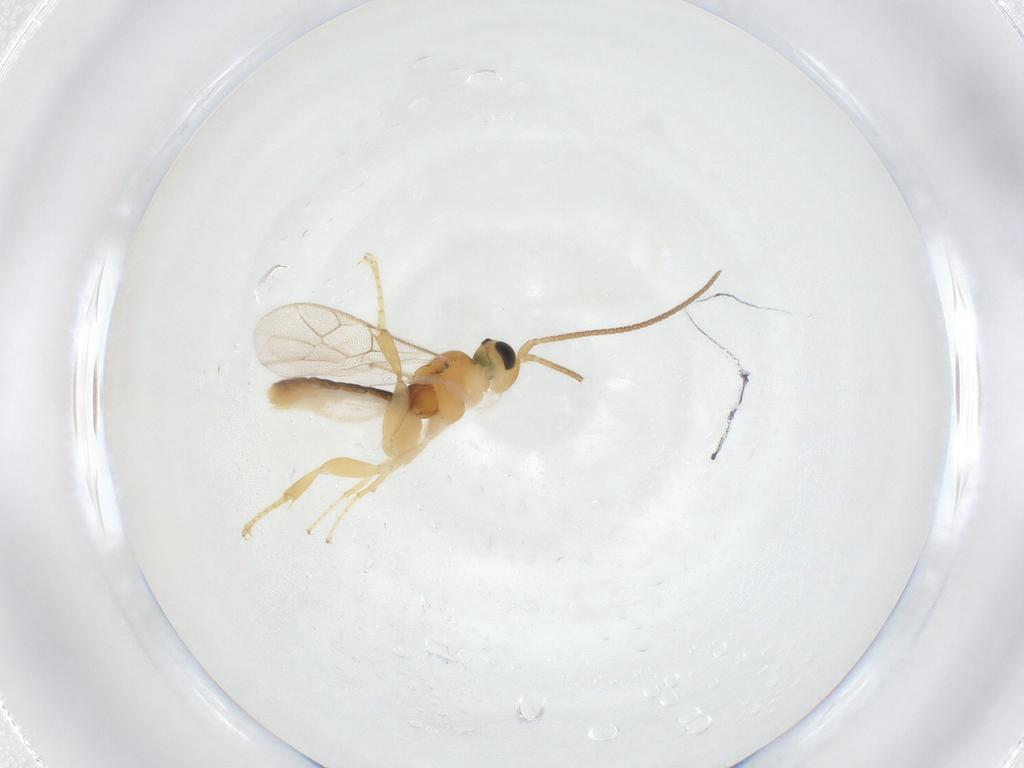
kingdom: Animalia
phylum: Arthropoda
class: Insecta
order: Hymenoptera
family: Ichneumonidae
